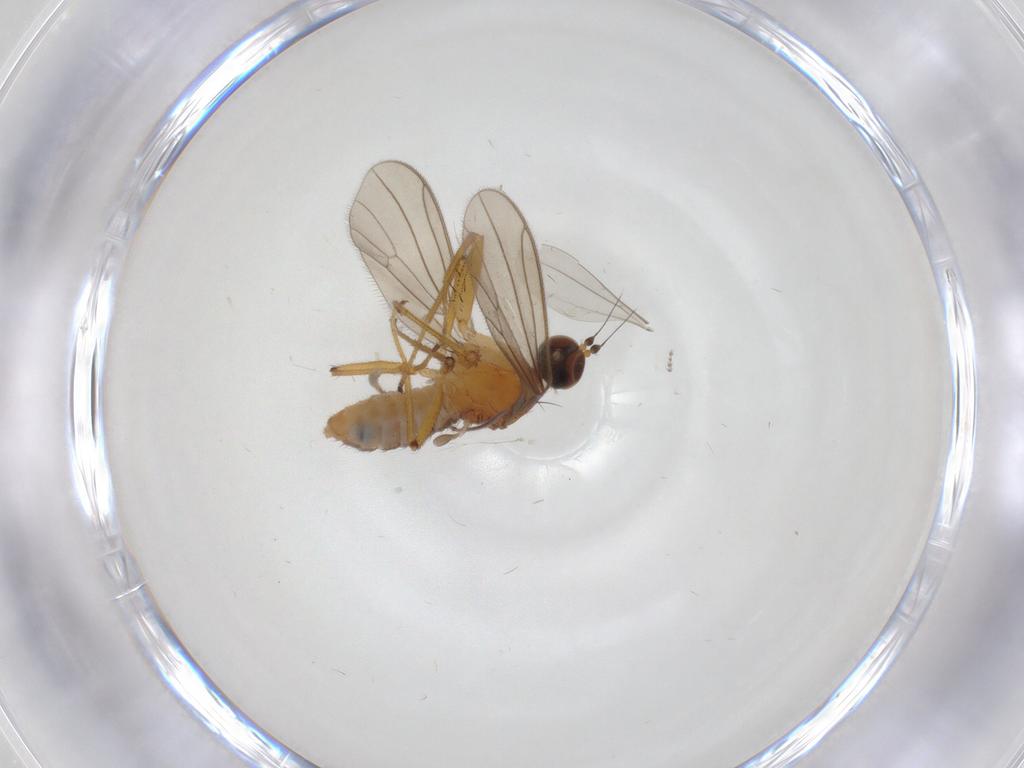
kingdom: Animalia
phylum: Arthropoda
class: Insecta
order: Diptera
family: Empididae
